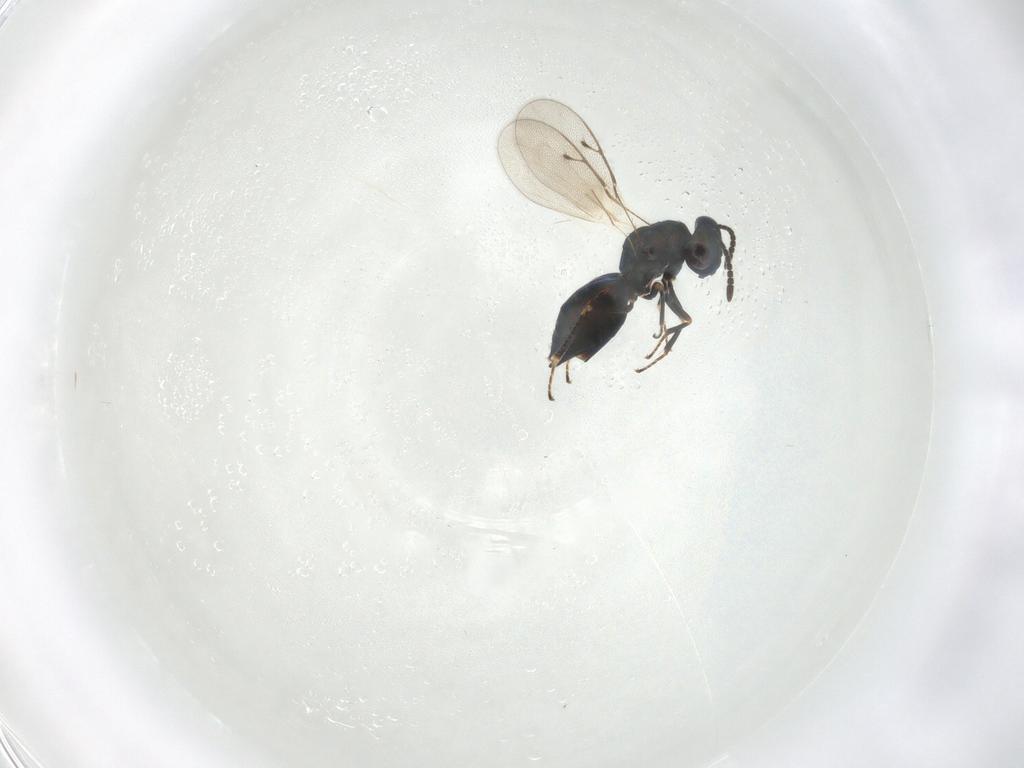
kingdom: Animalia
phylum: Arthropoda
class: Insecta
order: Hymenoptera
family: Pteromalidae
